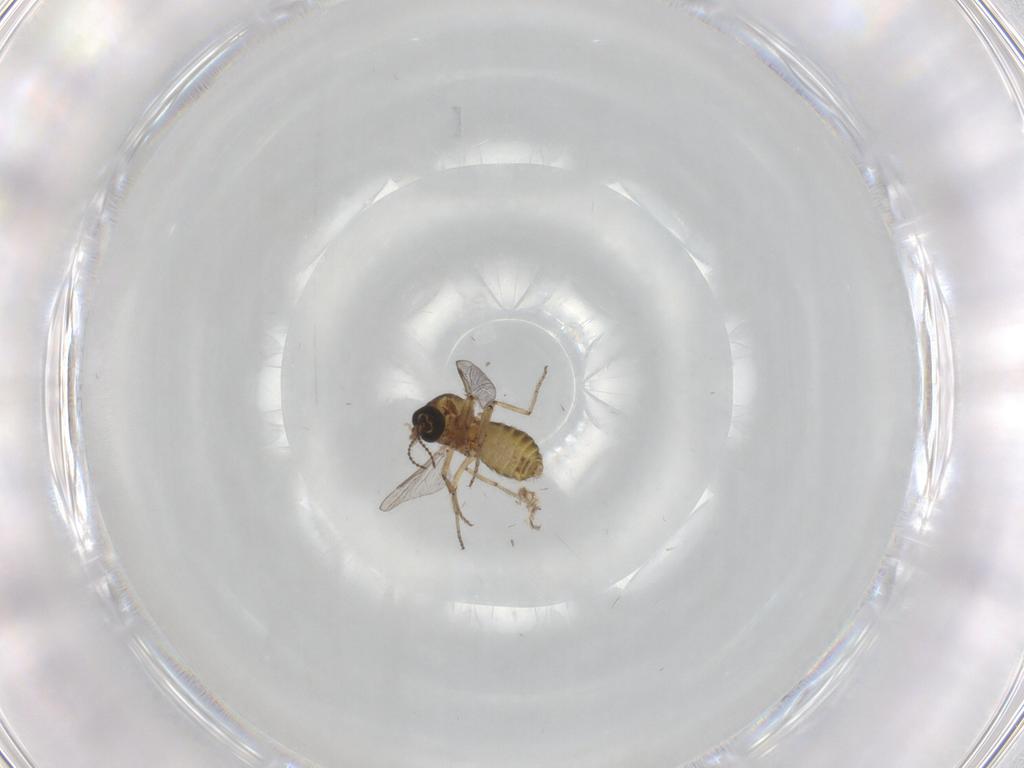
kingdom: Animalia
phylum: Arthropoda
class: Insecta
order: Diptera
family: Ceratopogonidae
